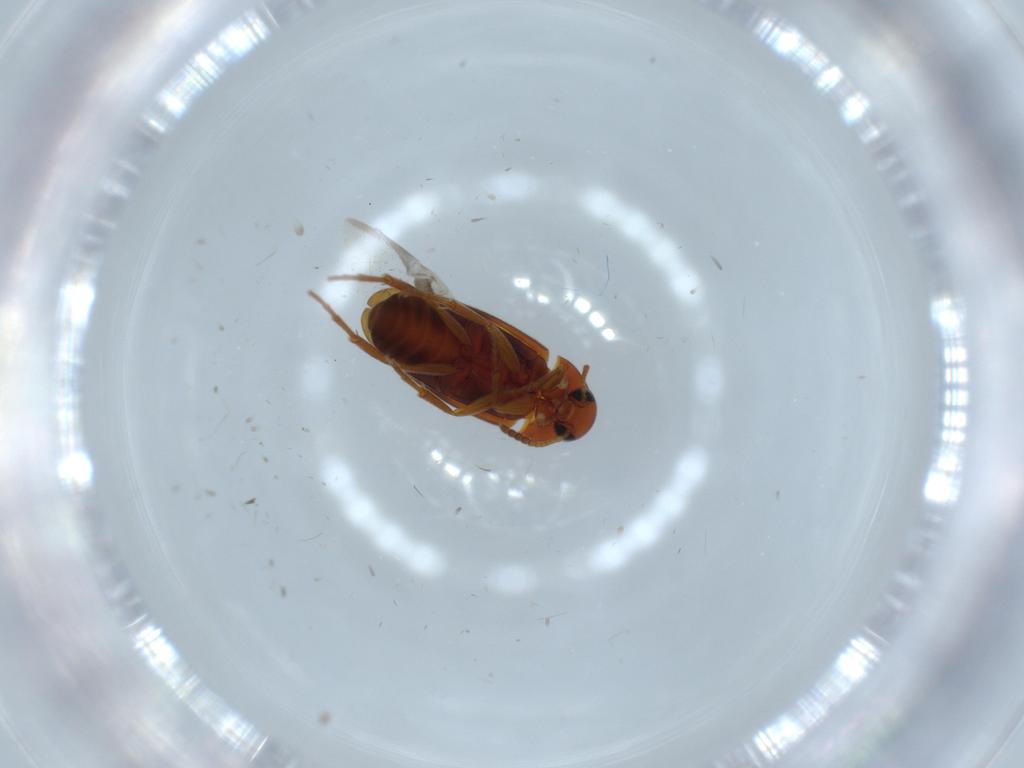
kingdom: Animalia
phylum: Arthropoda
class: Insecta
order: Coleoptera
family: Scraptiidae
